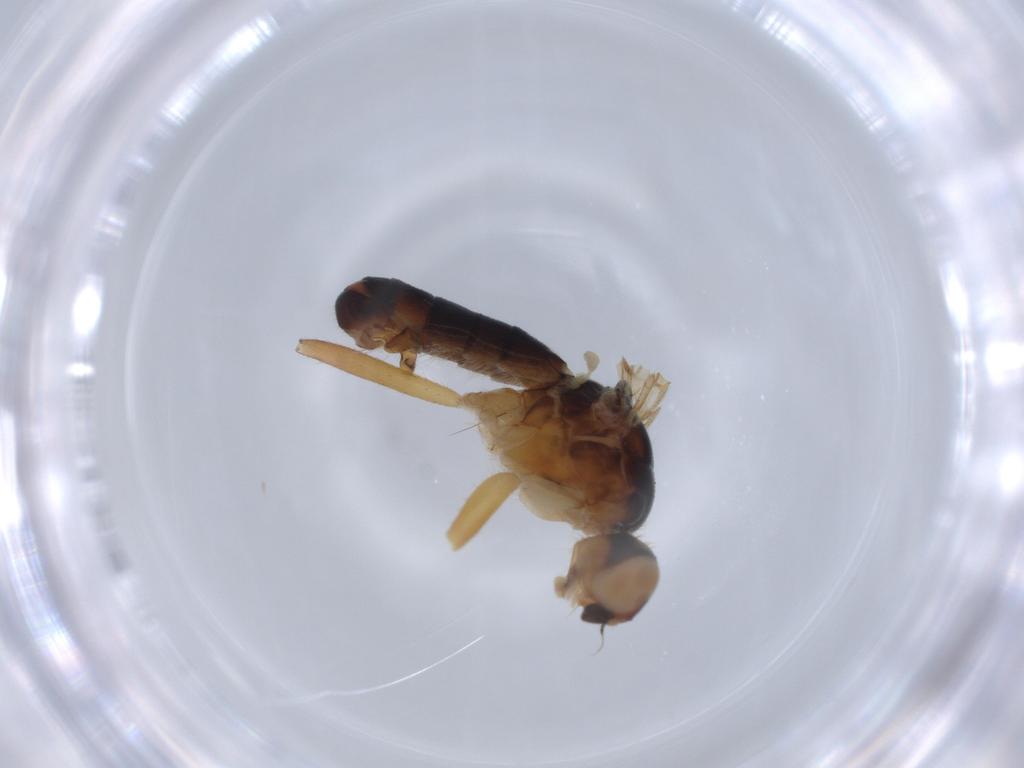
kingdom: Animalia
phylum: Arthropoda
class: Insecta
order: Diptera
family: Scathophagidae
